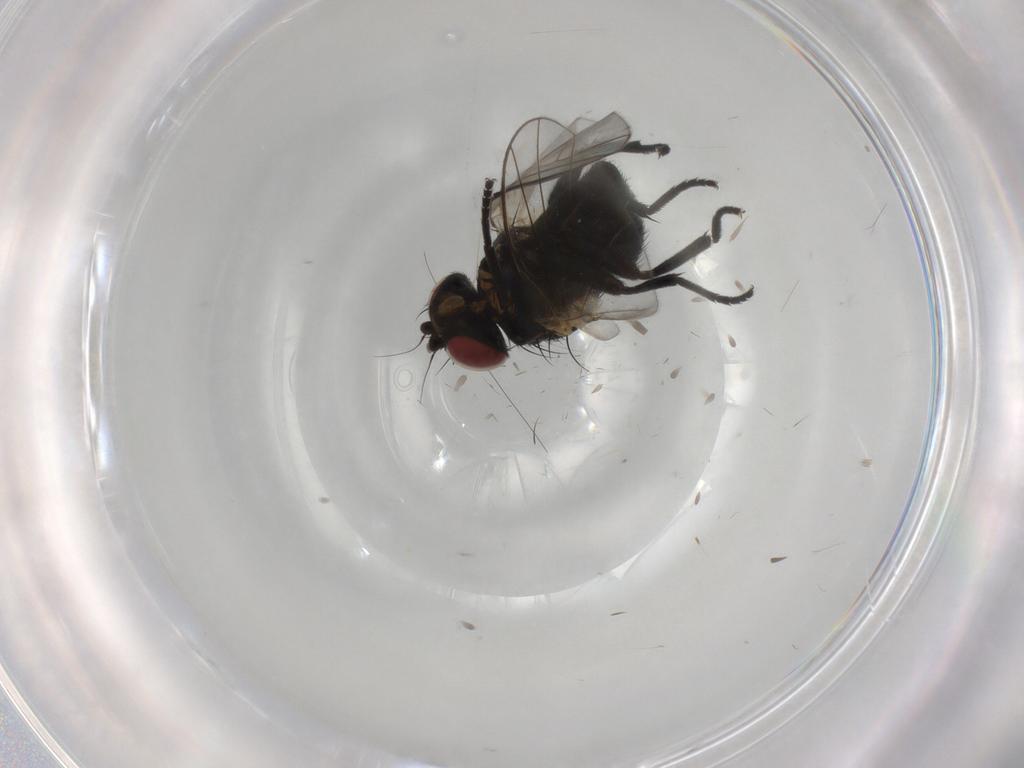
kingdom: Animalia
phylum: Arthropoda
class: Insecta
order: Diptera
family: Agromyzidae
